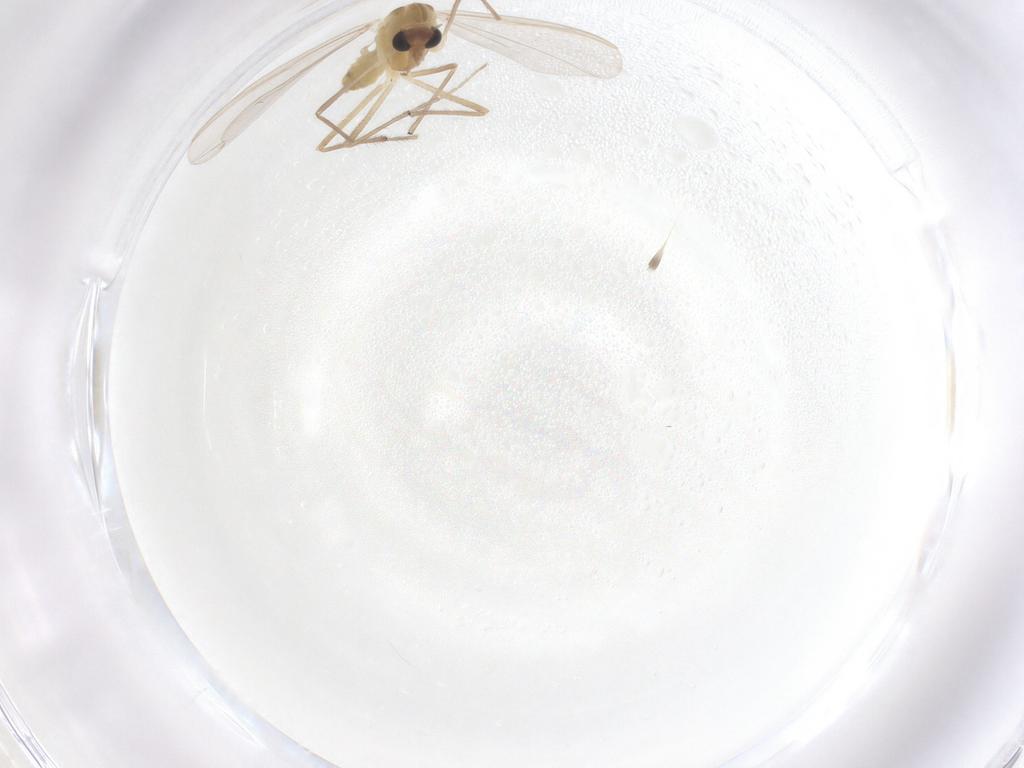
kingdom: Animalia
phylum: Arthropoda
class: Insecta
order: Diptera
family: Chironomidae
